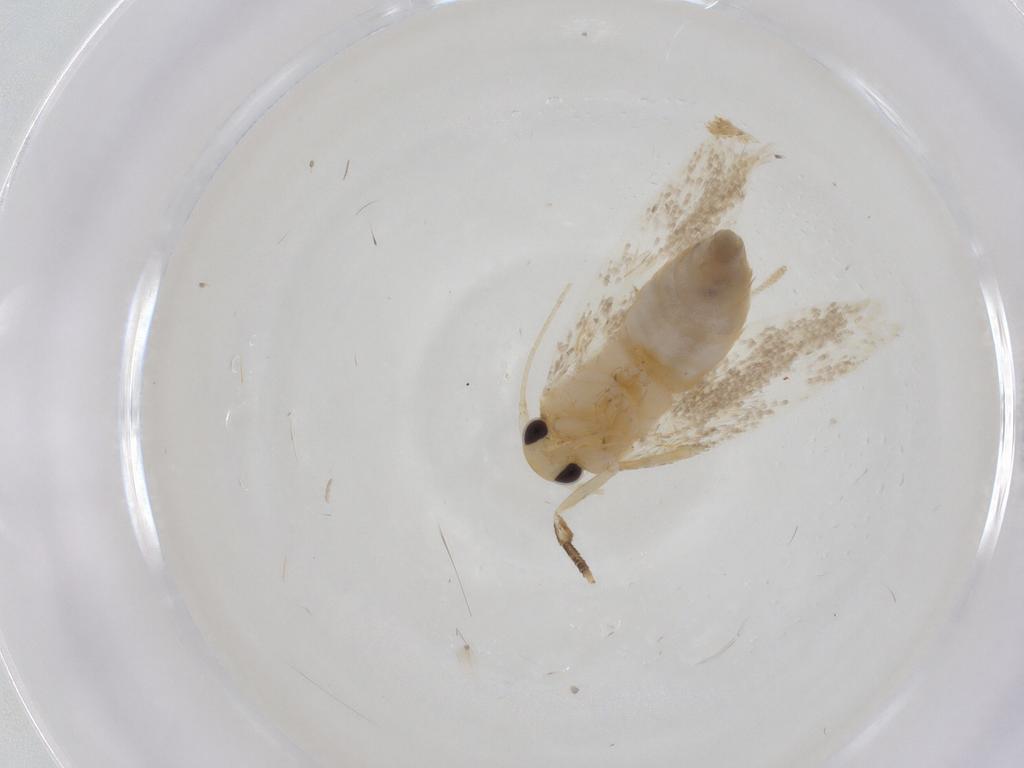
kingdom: Animalia
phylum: Arthropoda
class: Insecta
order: Lepidoptera
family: Erebidae
